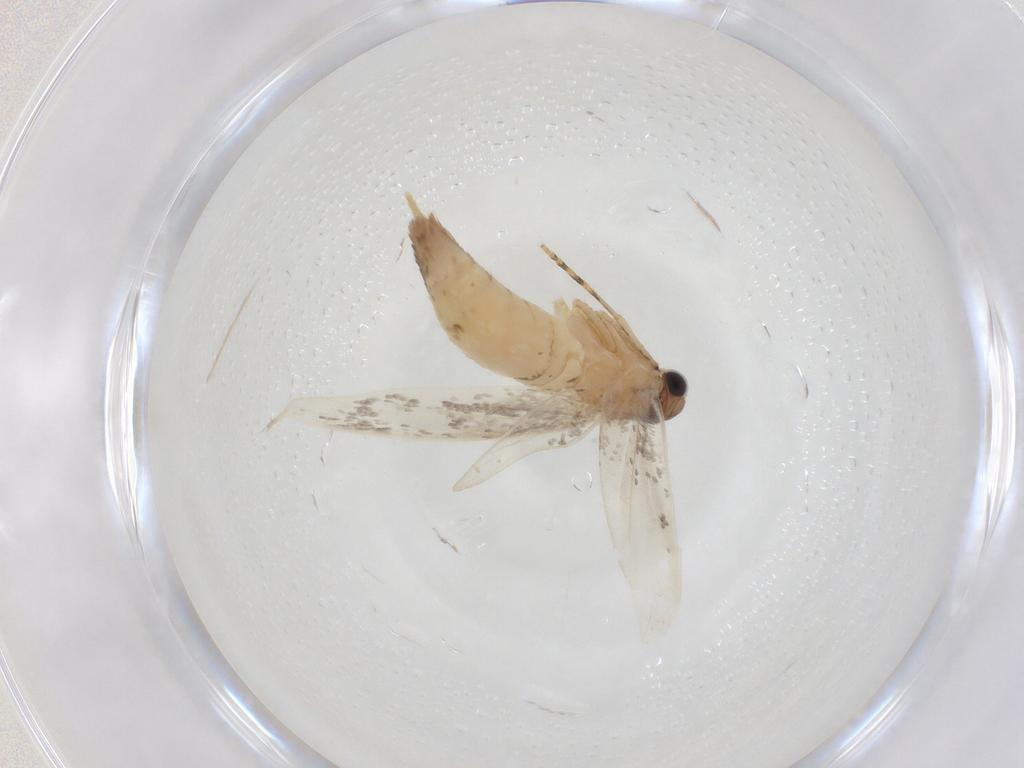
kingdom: Animalia
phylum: Arthropoda
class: Insecta
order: Lepidoptera
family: Tineidae
